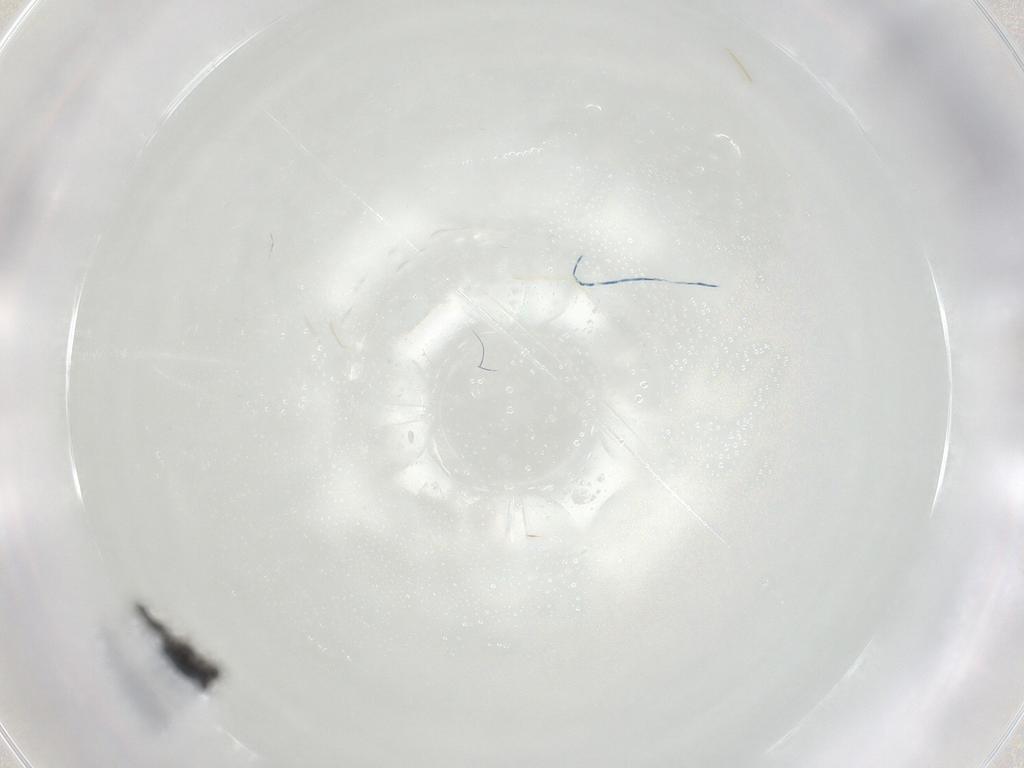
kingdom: Animalia
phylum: Arthropoda
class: Insecta
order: Hymenoptera
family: Platygastridae
